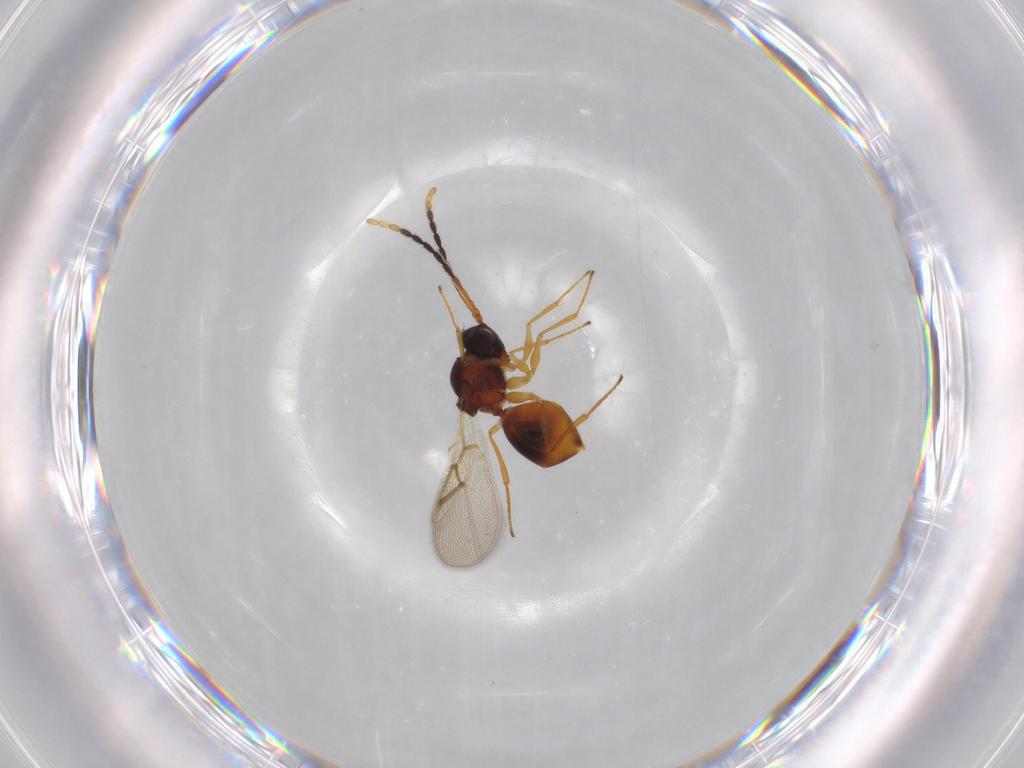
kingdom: Animalia
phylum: Arthropoda
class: Insecta
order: Hymenoptera
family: Figitidae
